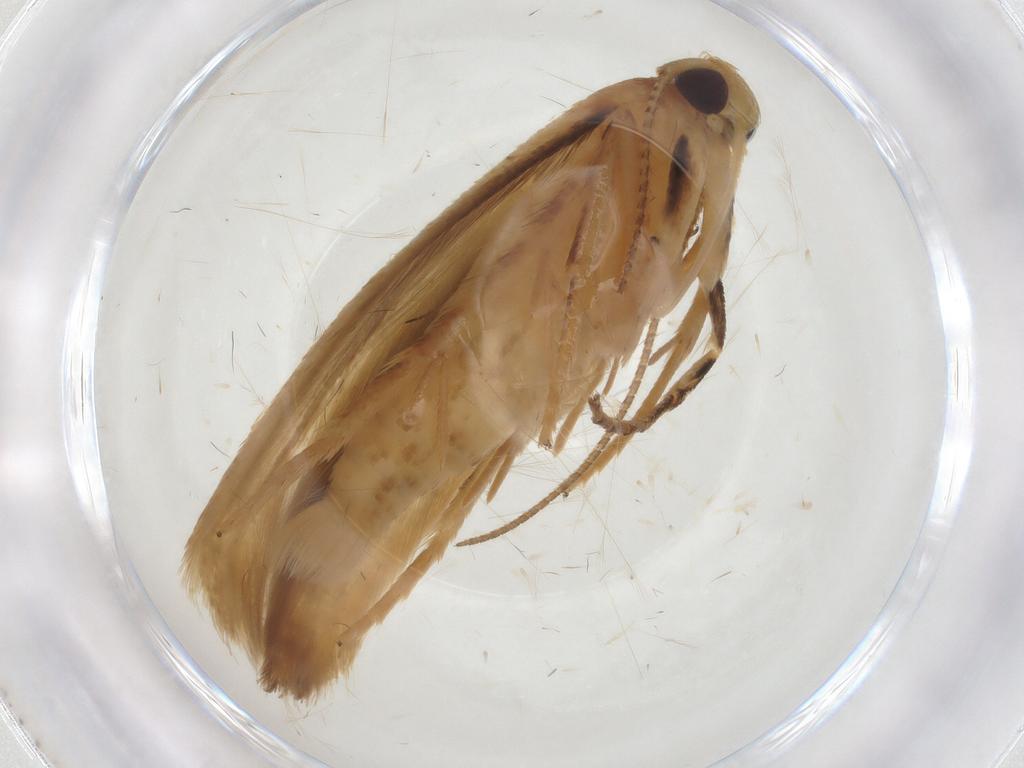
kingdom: Animalia
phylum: Arthropoda
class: Insecta
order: Lepidoptera
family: Stathmopodidae
